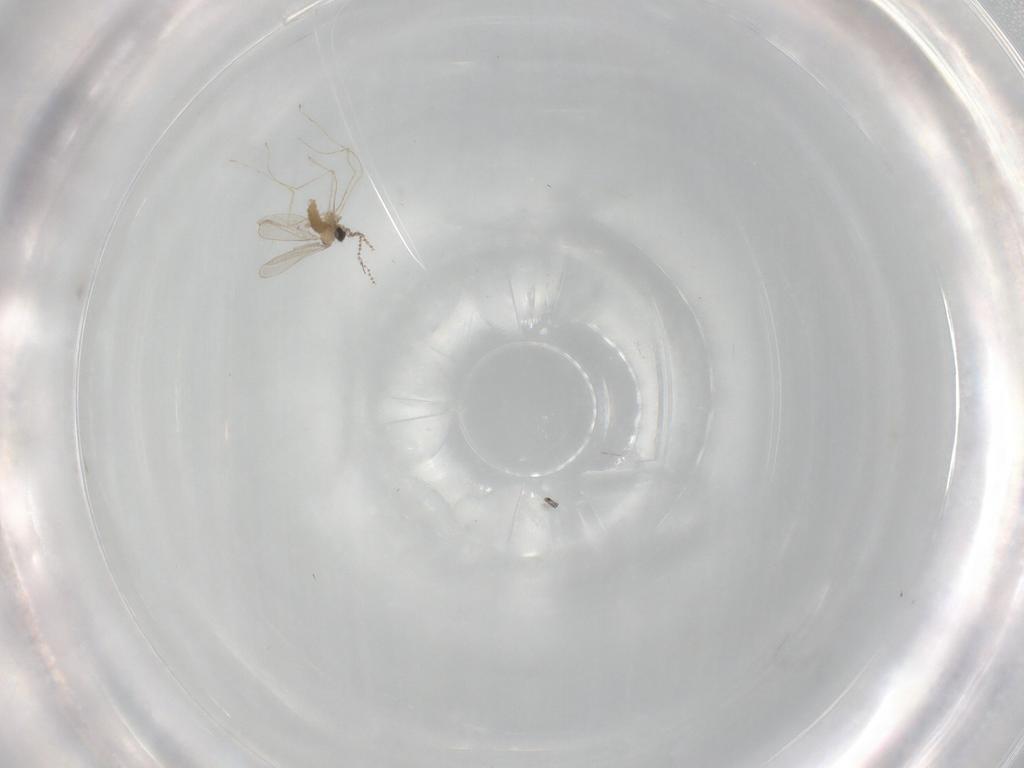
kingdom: Animalia
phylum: Arthropoda
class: Insecta
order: Diptera
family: Cecidomyiidae
